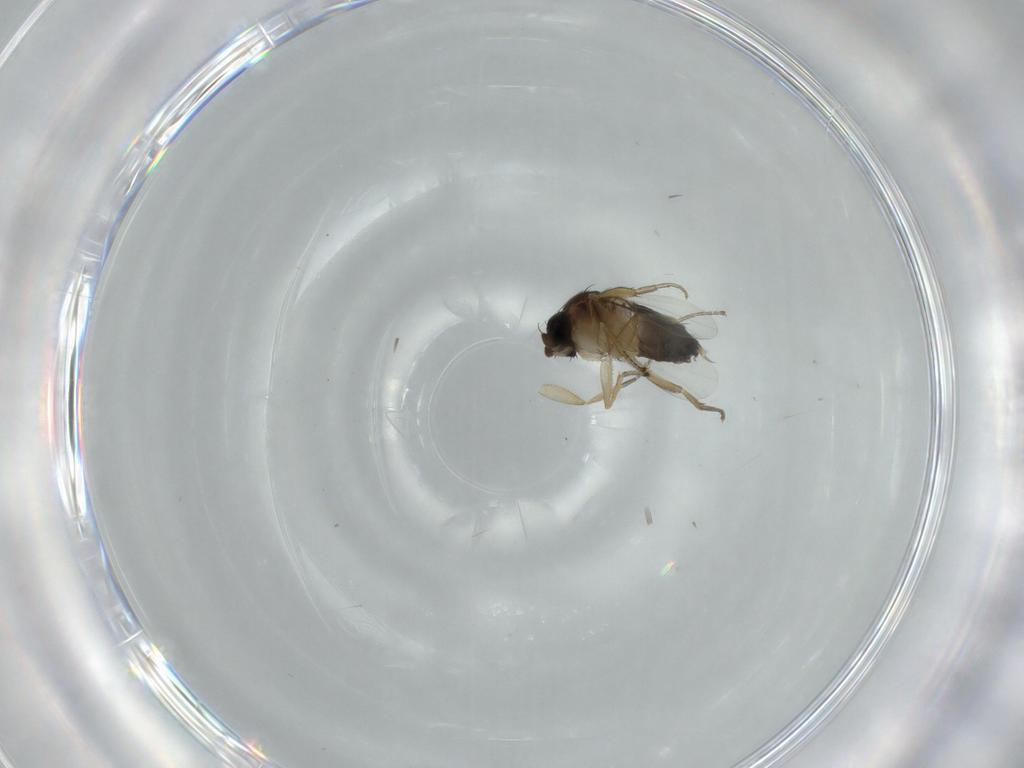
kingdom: Animalia
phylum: Arthropoda
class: Insecta
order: Diptera
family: Phoridae
